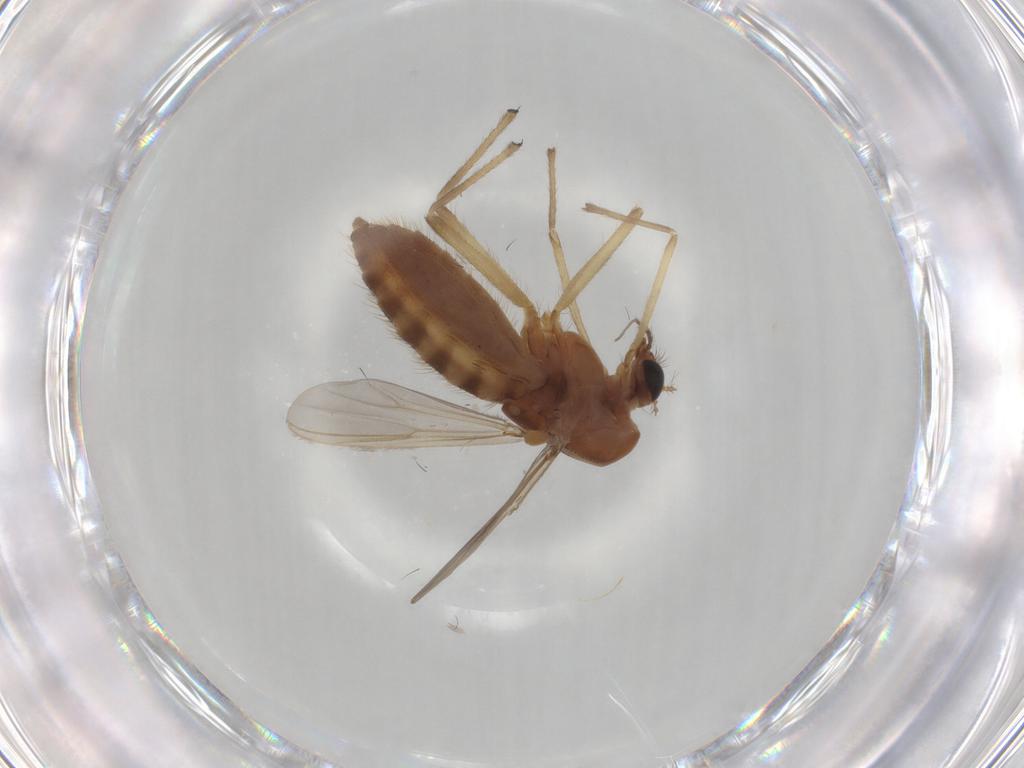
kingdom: Animalia
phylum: Arthropoda
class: Insecta
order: Diptera
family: Chironomidae
